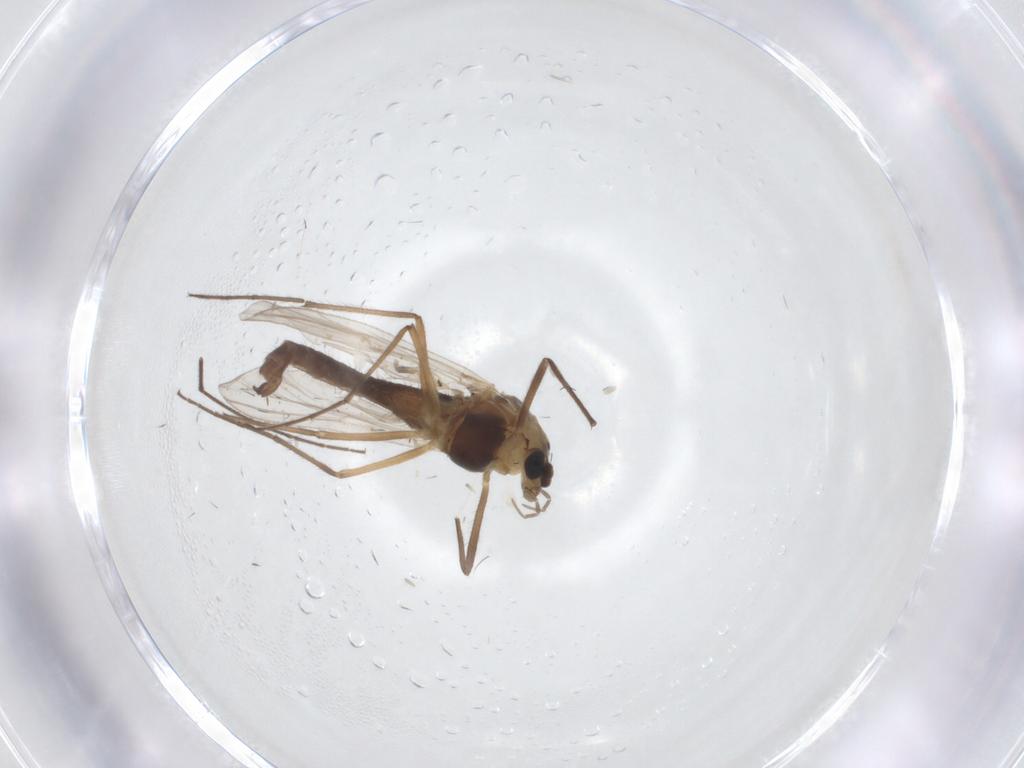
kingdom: Animalia
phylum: Arthropoda
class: Insecta
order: Diptera
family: Chironomidae
